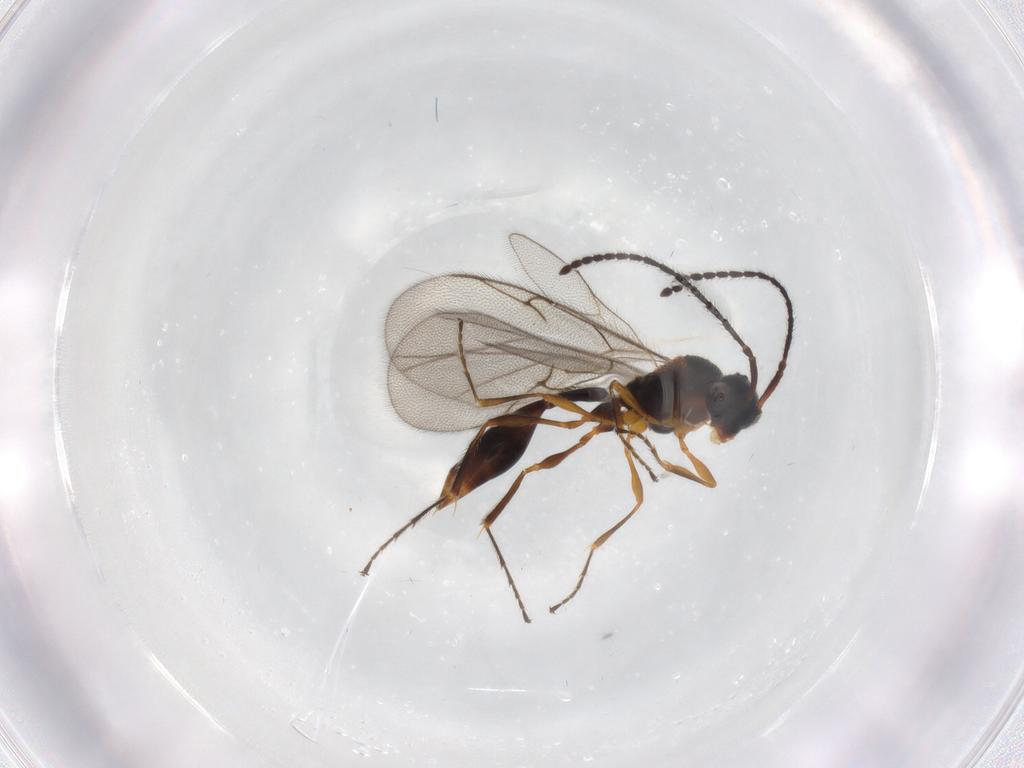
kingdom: Animalia
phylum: Arthropoda
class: Insecta
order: Hymenoptera
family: Diapriidae
